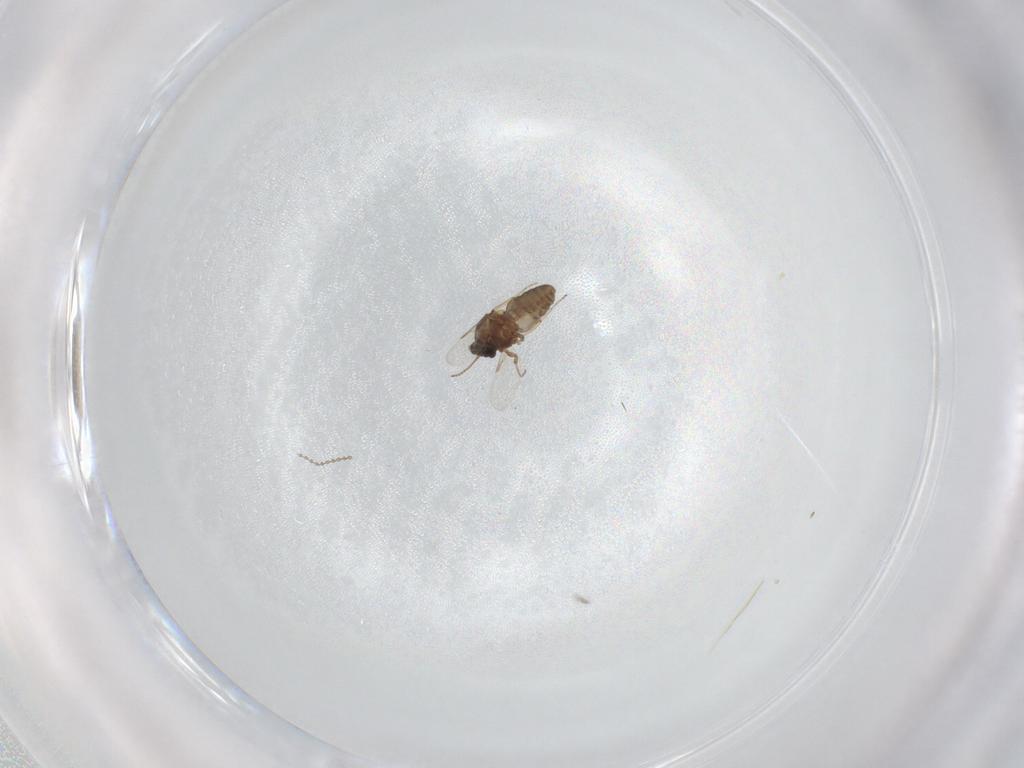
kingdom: Animalia
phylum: Arthropoda
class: Insecta
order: Diptera
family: Ceratopogonidae
